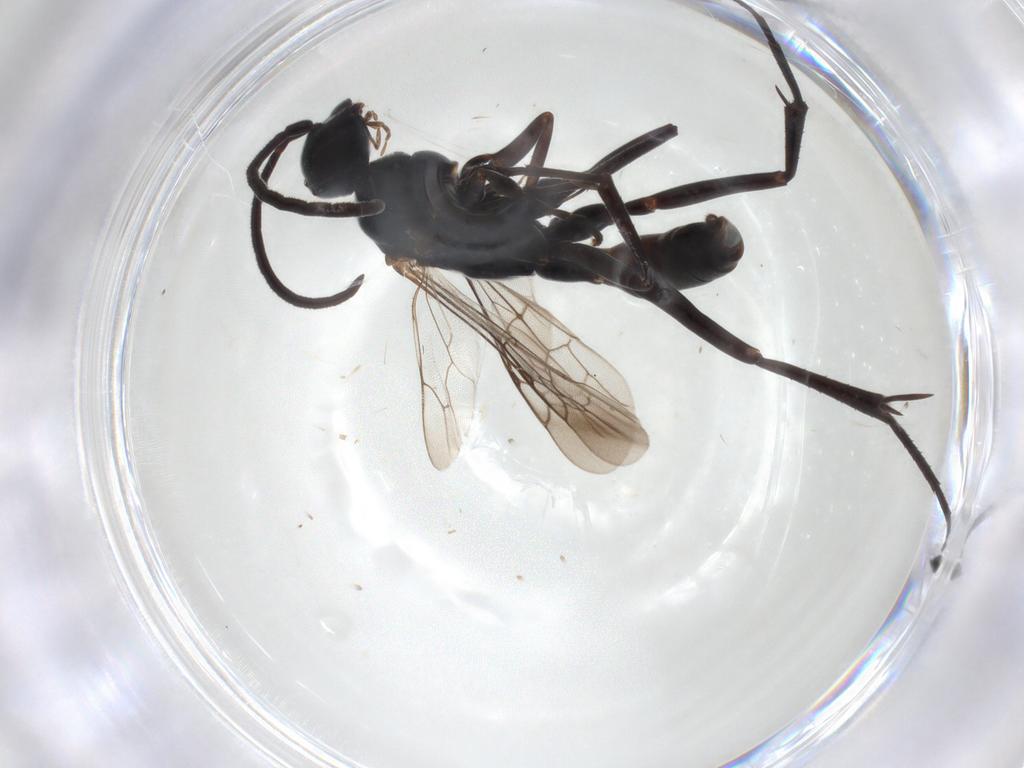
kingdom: Animalia
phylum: Arthropoda
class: Insecta
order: Hymenoptera
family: Pompilidae
